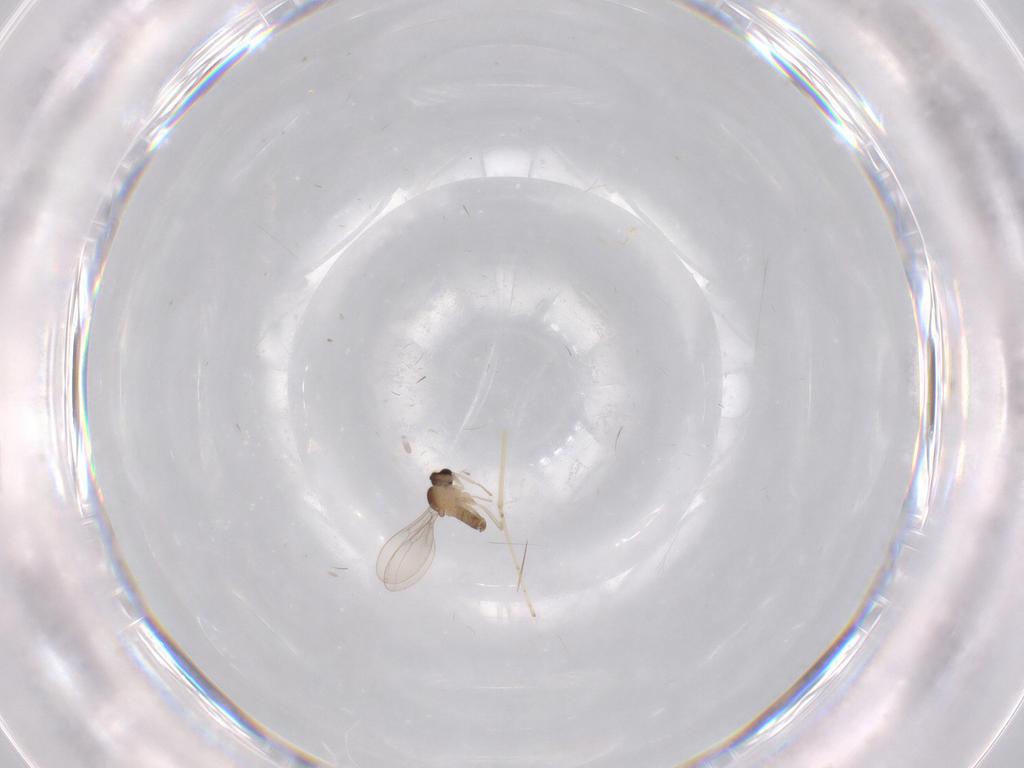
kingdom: Animalia
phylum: Arthropoda
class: Insecta
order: Diptera
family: Cecidomyiidae
